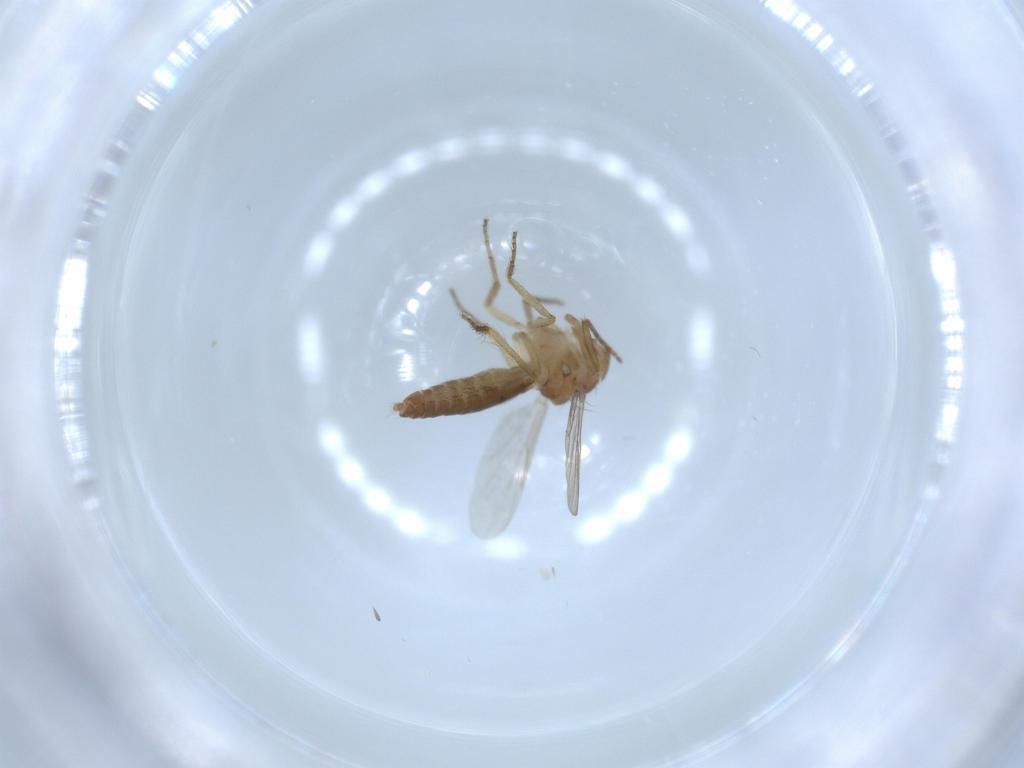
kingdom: Animalia
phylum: Arthropoda
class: Insecta
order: Diptera
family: Ceratopogonidae
